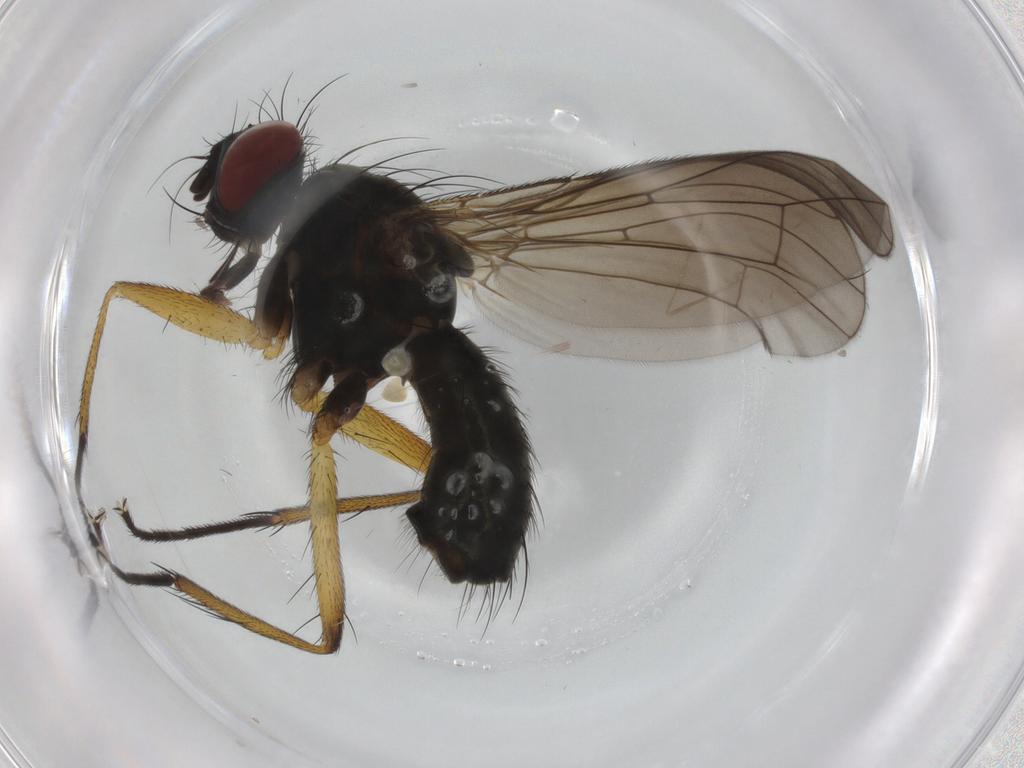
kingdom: Animalia
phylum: Arthropoda
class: Insecta
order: Diptera
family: Muscidae
